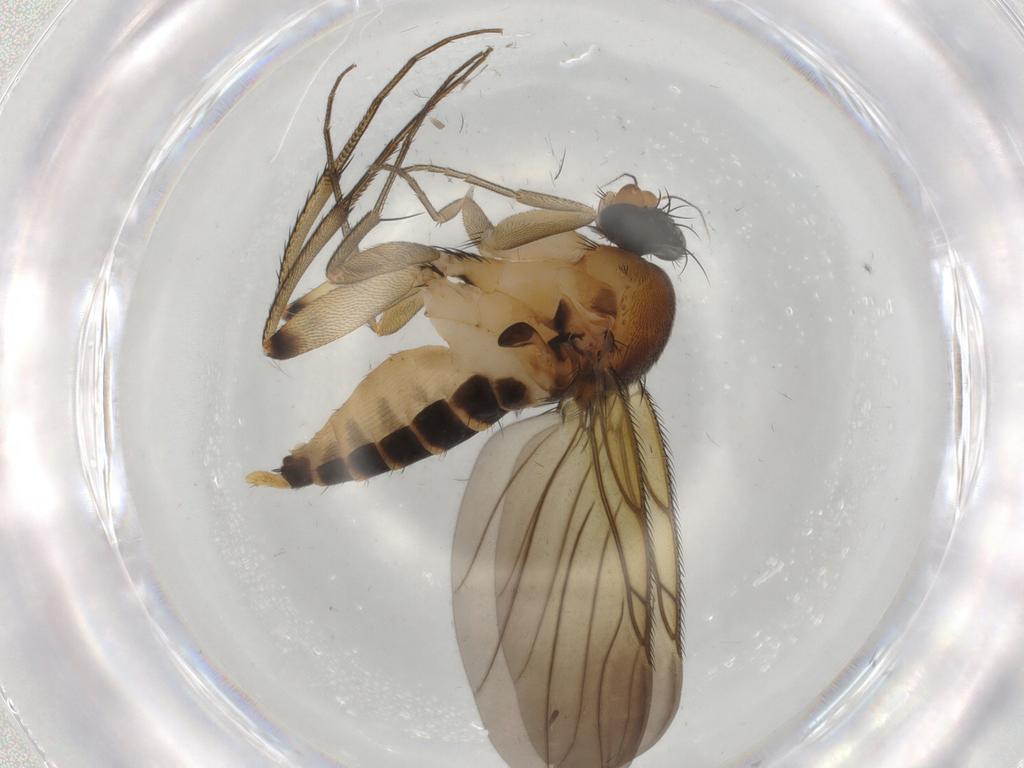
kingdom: Animalia
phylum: Arthropoda
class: Insecta
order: Diptera
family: Phoridae
